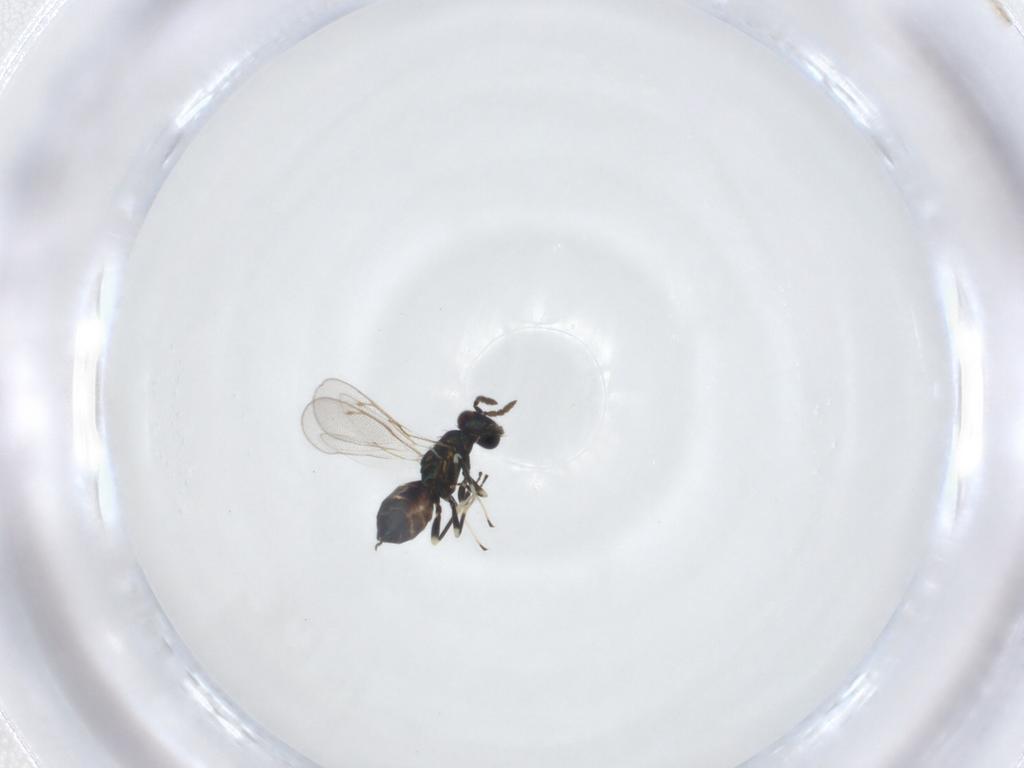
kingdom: Animalia
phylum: Arthropoda
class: Insecta
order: Hymenoptera
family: Eulophidae
